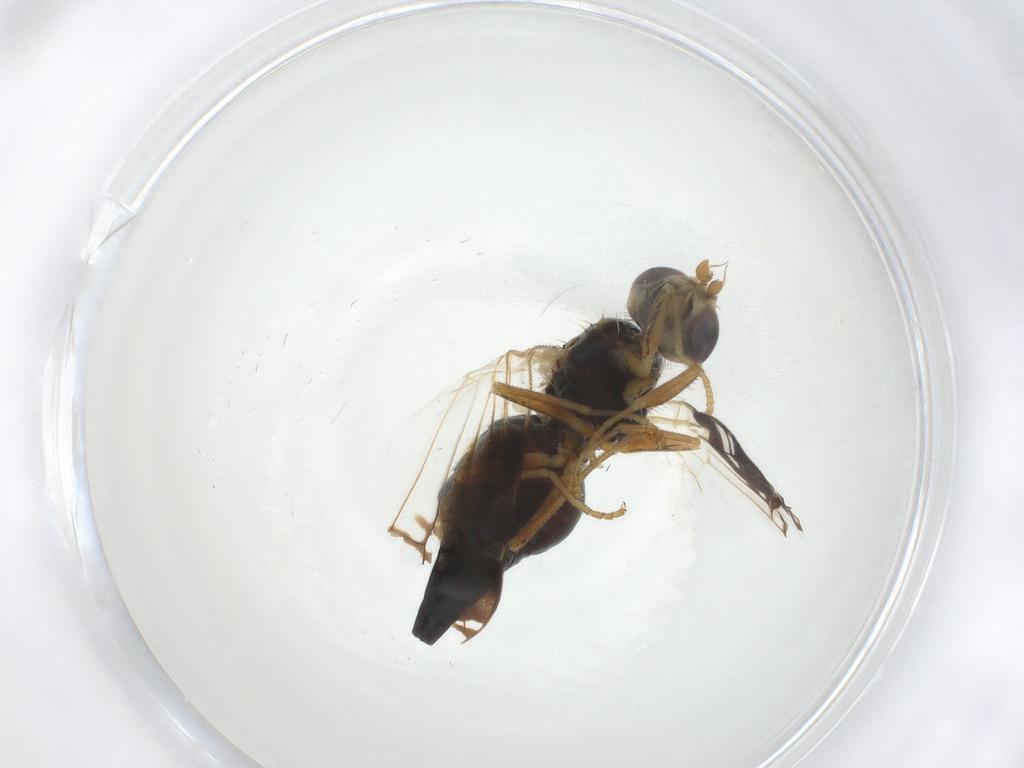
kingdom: Animalia
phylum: Arthropoda
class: Insecta
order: Diptera
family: Tephritidae
